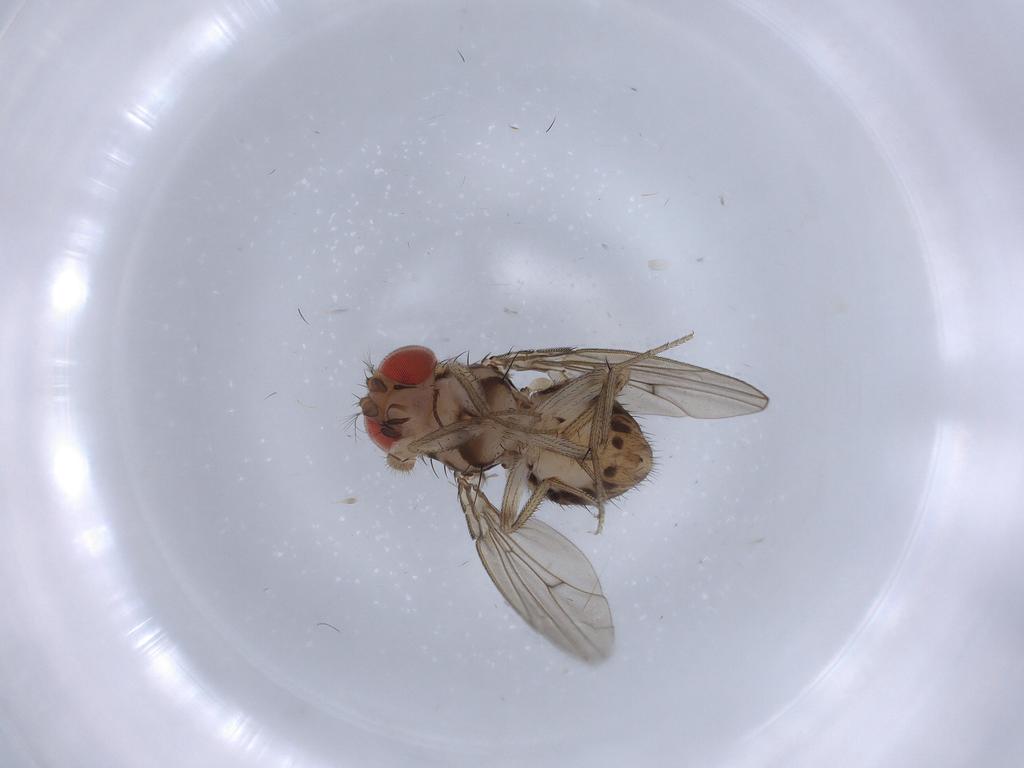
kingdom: Animalia
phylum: Arthropoda
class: Insecta
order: Diptera
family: Drosophilidae
